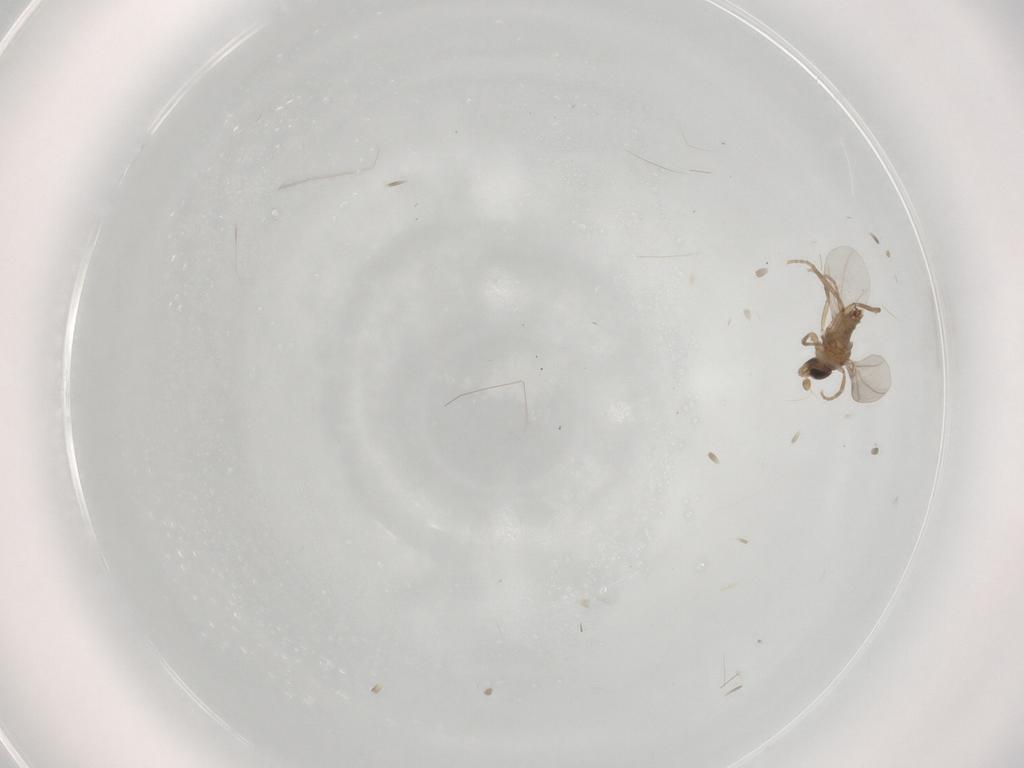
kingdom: Animalia
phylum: Arthropoda
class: Insecta
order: Diptera
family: Phoridae
